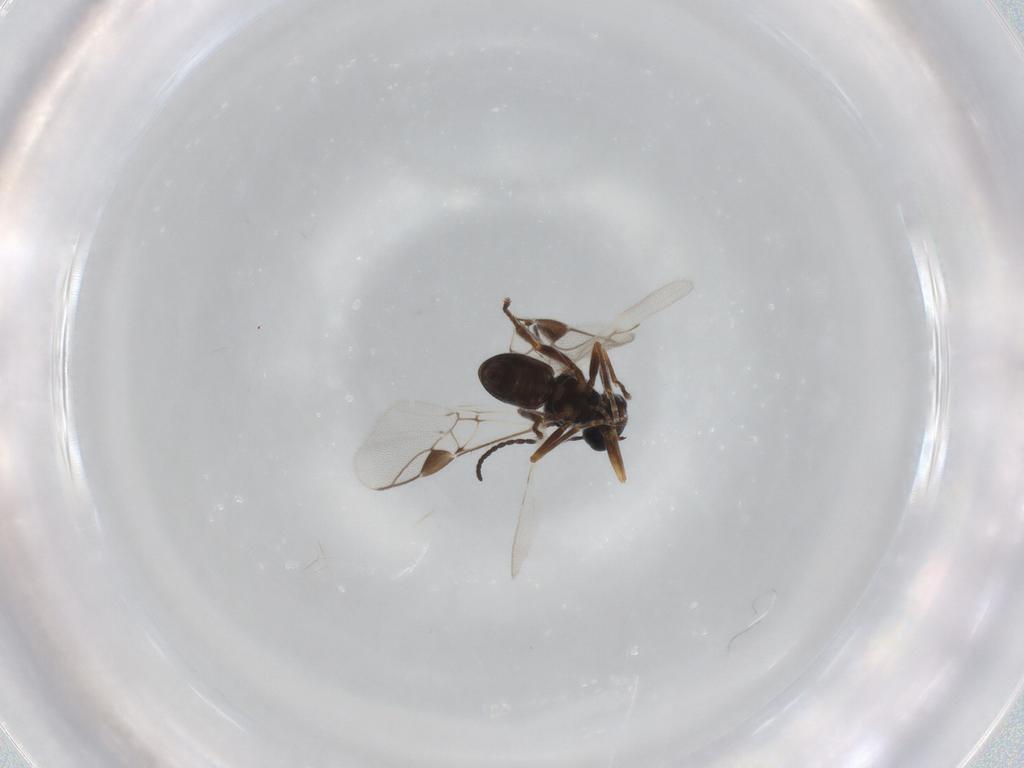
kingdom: Animalia
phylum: Arthropoda
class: Insecta
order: Hymenoptera
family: Braconidae
